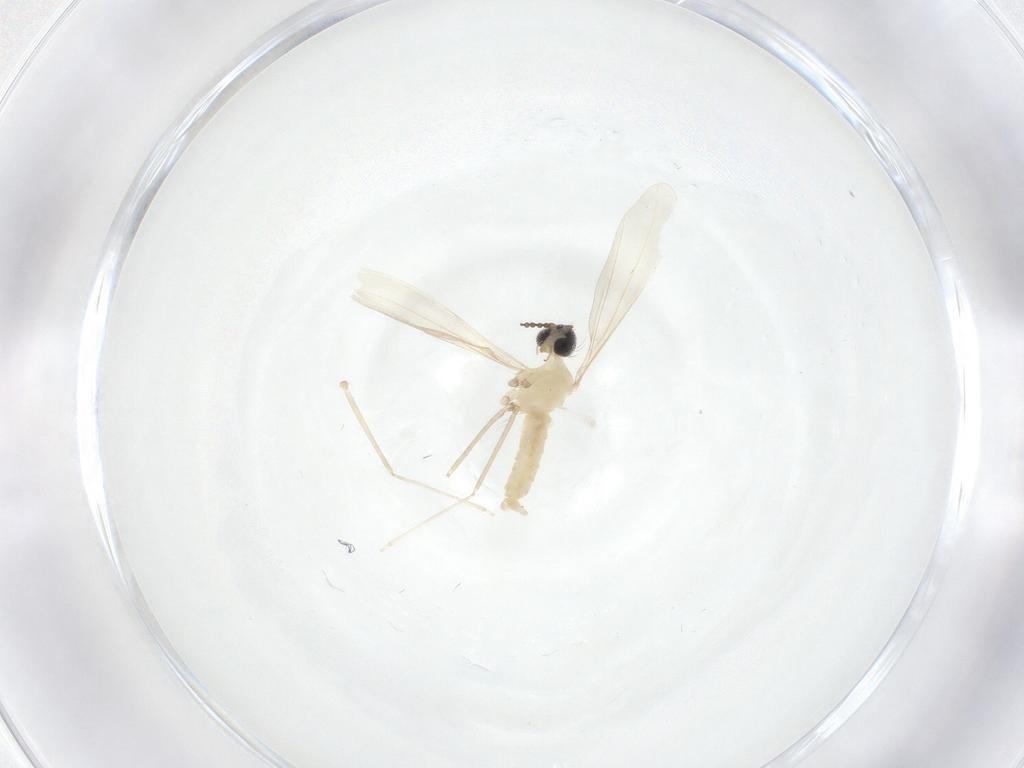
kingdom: Animalia
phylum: Arthropoda
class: Insecta
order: Diptera
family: Cecidomyiidae
